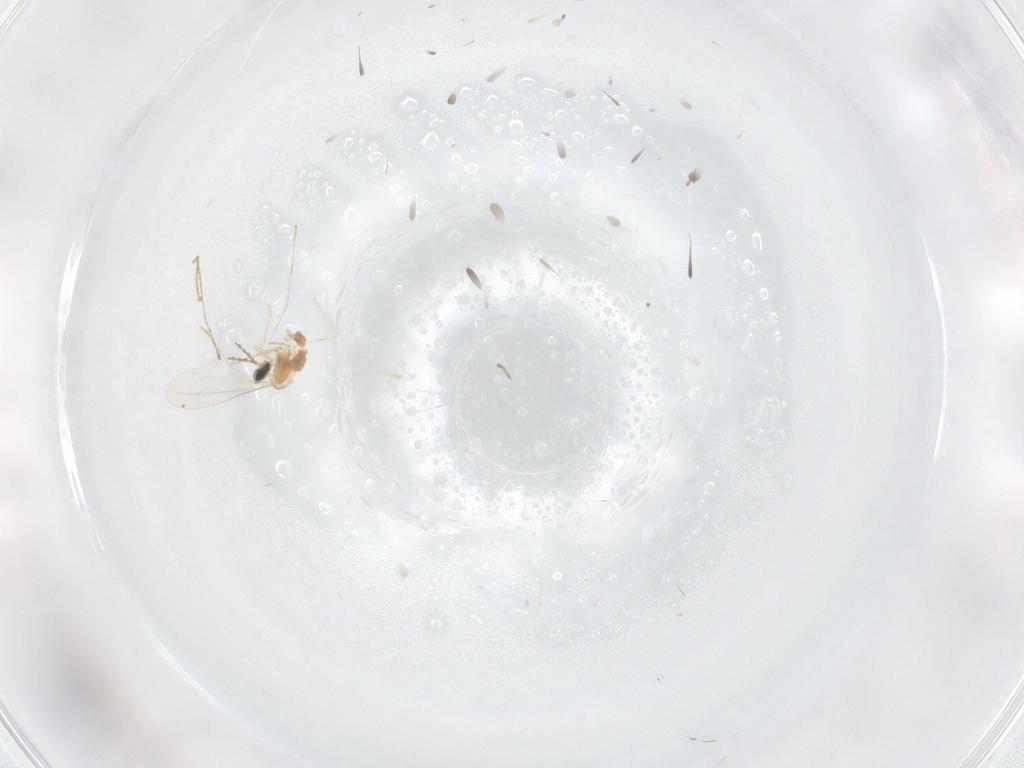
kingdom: Animalia
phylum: Arthropoda
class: Insecta
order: Diptera
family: Cecidomyiidae
